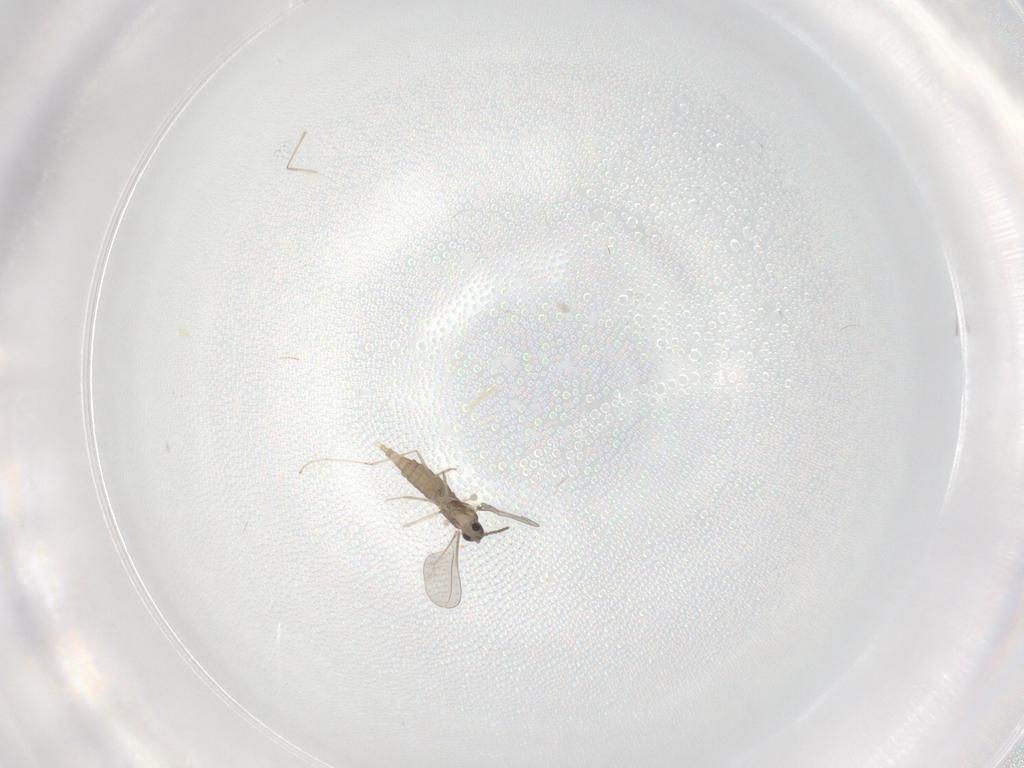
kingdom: Animalia
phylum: Arthropoda
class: Insecta
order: Diptera
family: Phoridae
